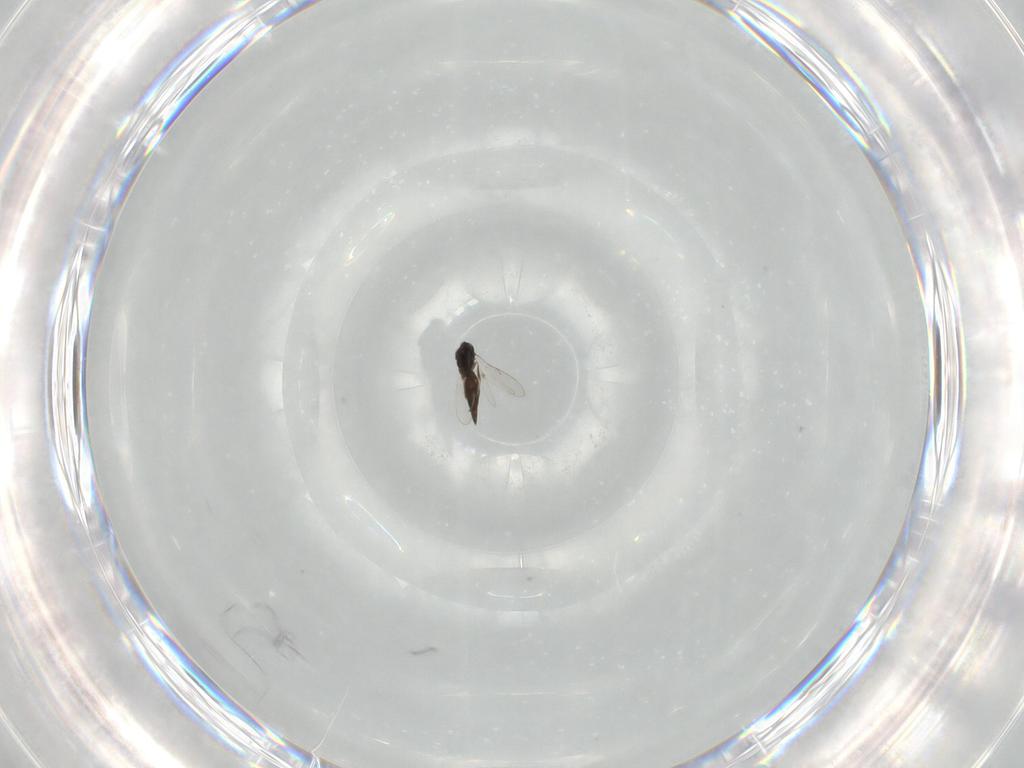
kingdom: Animalia
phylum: Arthropoda
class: Insecta
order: Hymenoptera
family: Scelionidae
